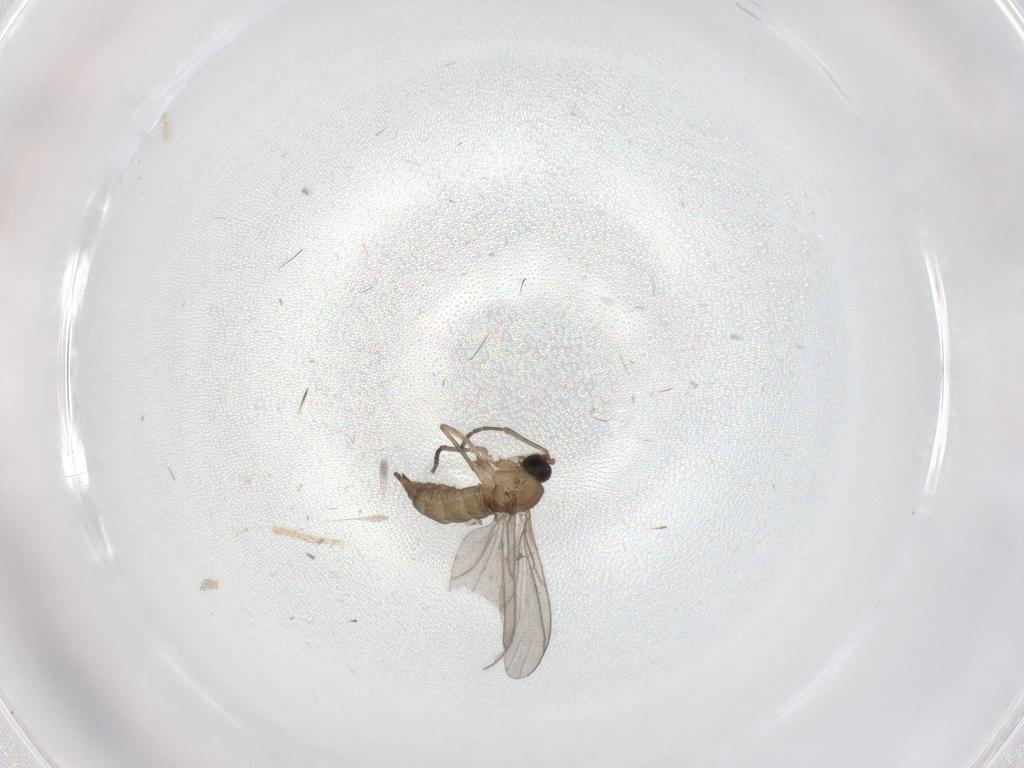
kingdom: Animalia
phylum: Arthropoda
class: Insecta
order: Diptera
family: Sciaridae
